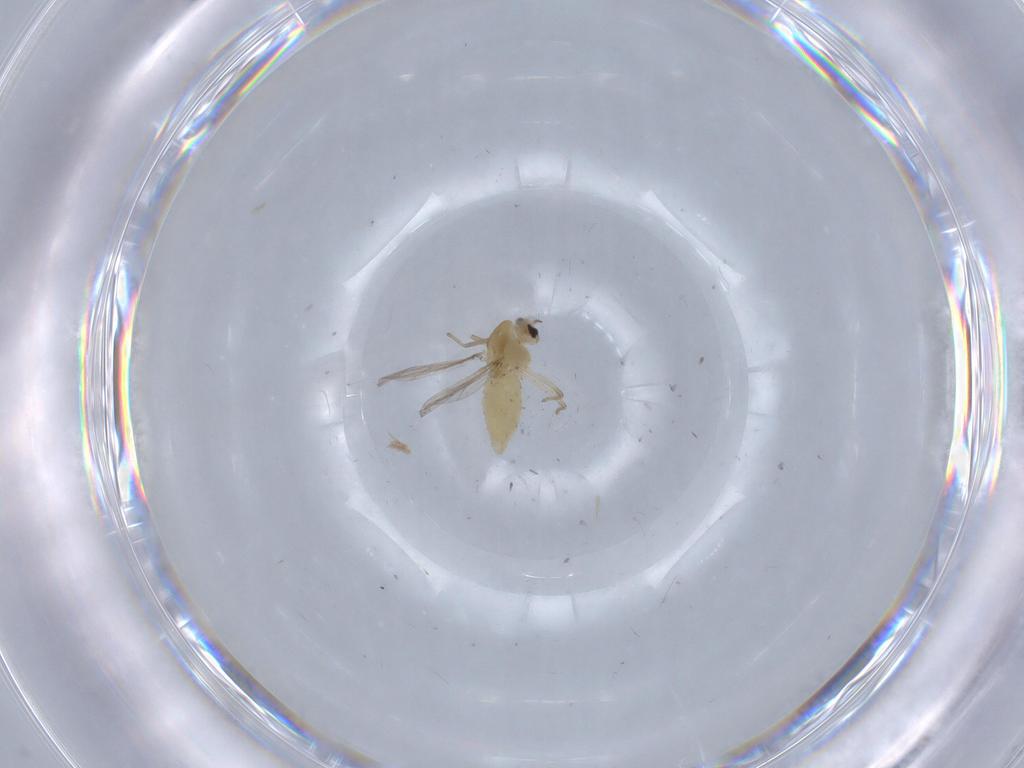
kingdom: Animalia
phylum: Arthropoda
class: Insecta
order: Diptera
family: Chironomidae
